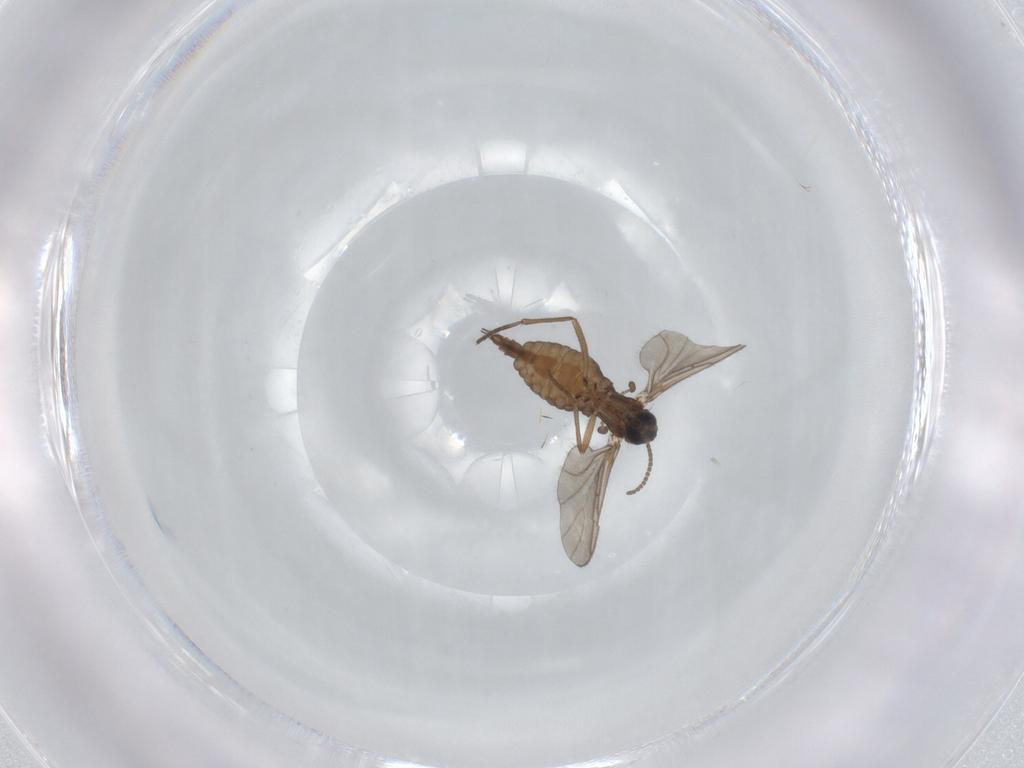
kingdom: Animalia
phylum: Arthropoda
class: Insecta
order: Diptera
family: Sciaridae
